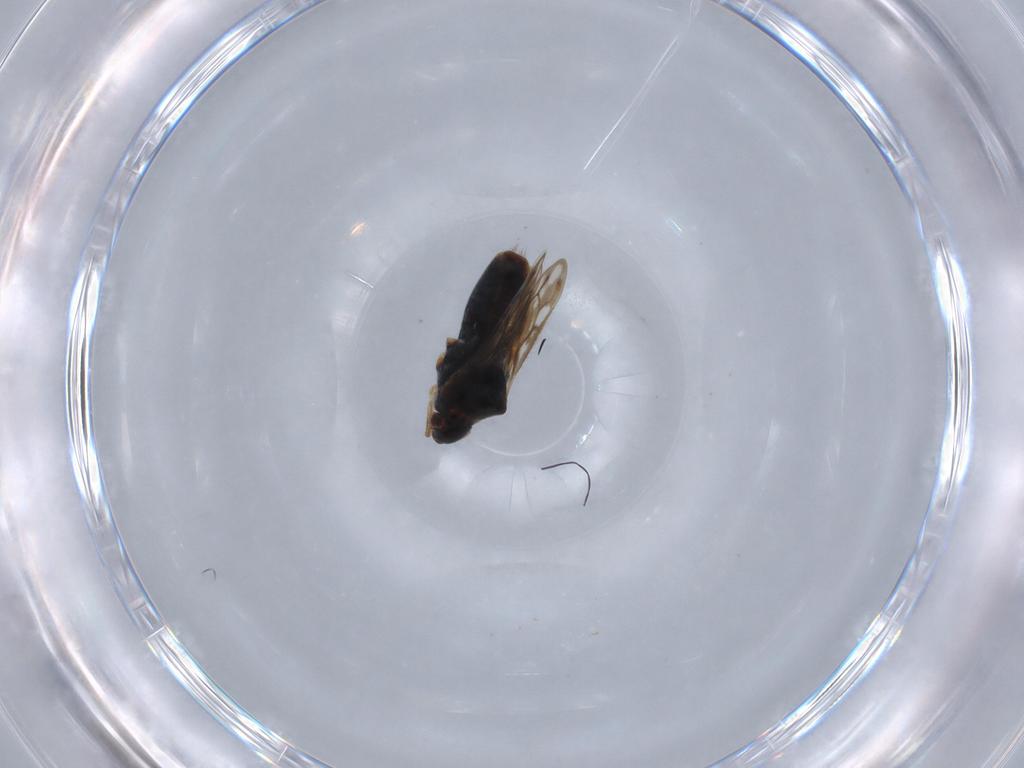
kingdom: Animalia
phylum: Arthropoda
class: Insecta
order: Hemiptera
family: Veliidae
